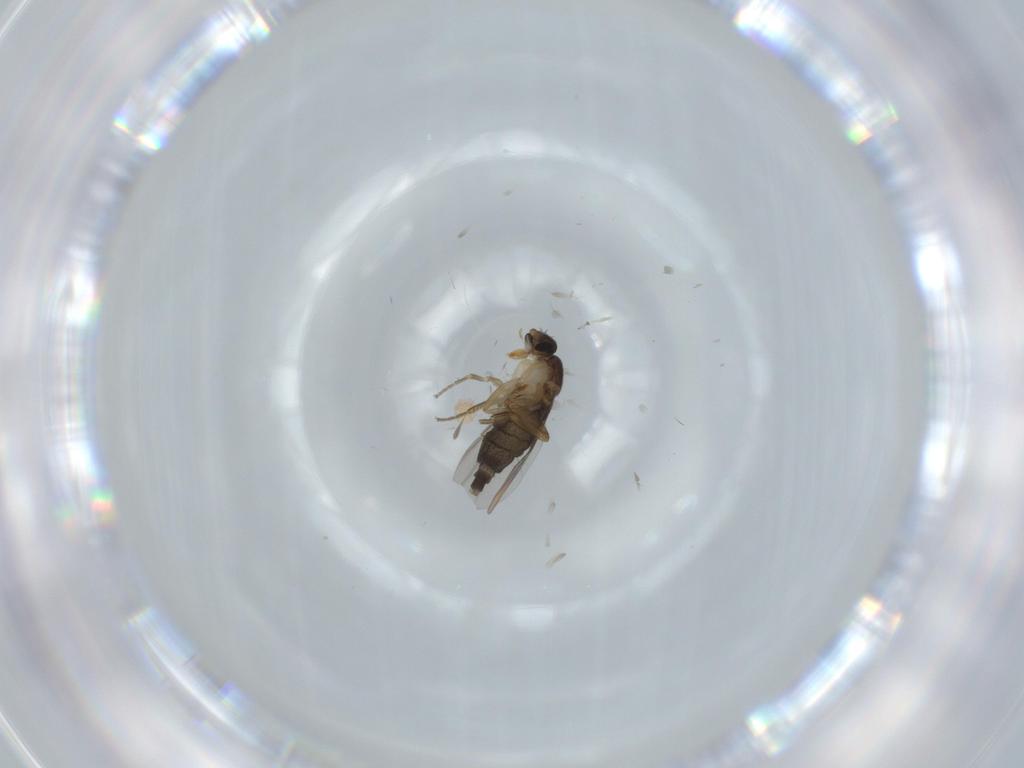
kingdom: Animalia
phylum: Arthropoda
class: Insecta
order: Diptera
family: Phoridae
